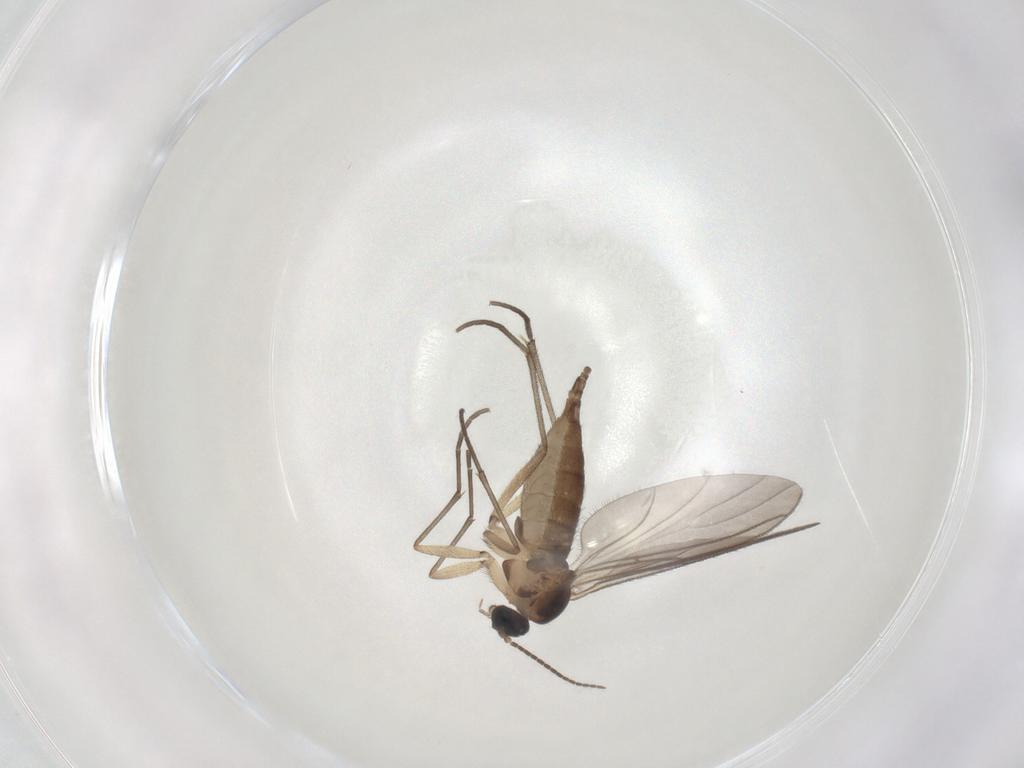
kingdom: Animalia
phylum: Arthropoda
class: Insecta
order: Diptera
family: Sciaridae
